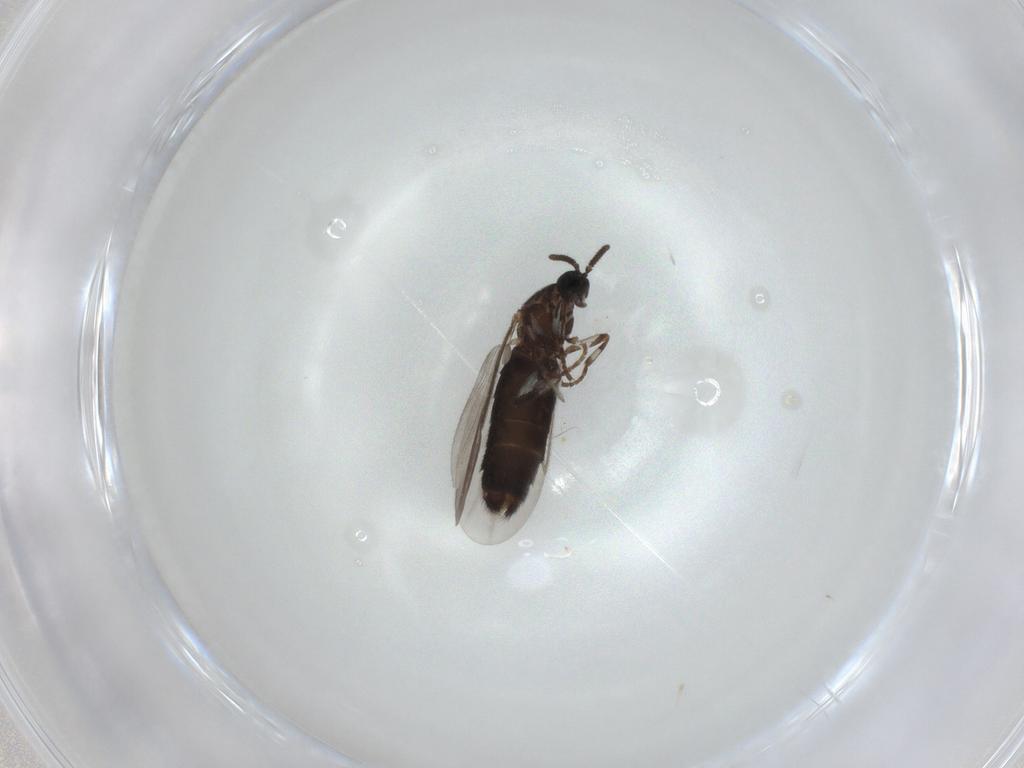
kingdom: Animalia
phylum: Arthropoda
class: Insecta
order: Diptera
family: Scatopsidae
